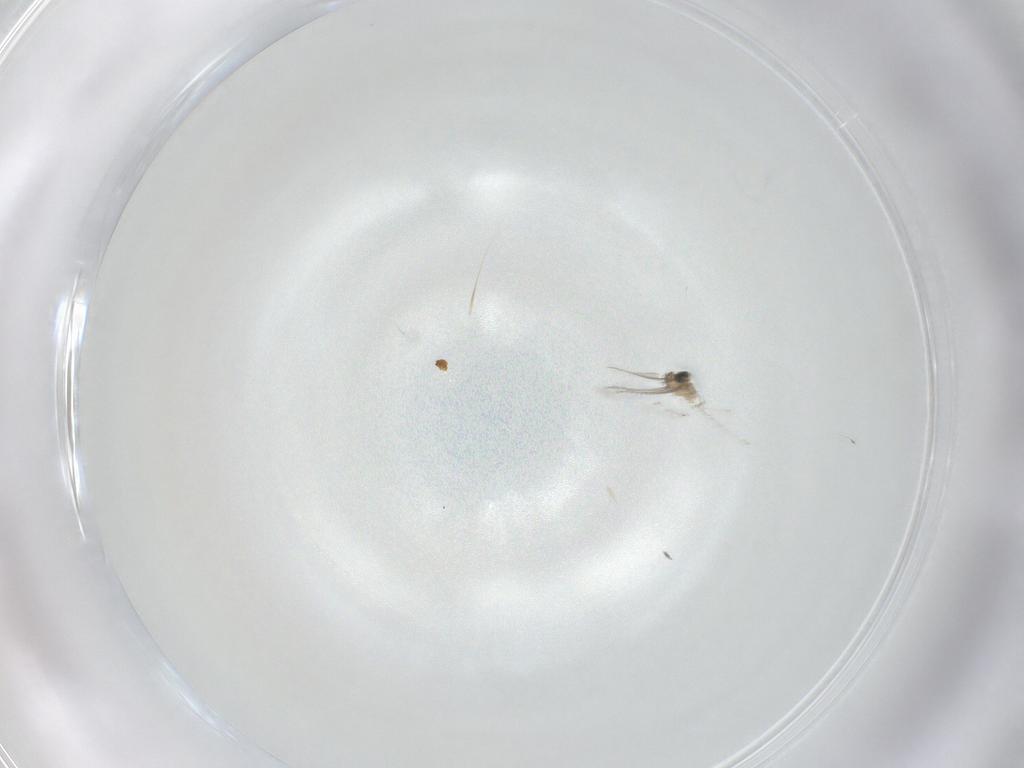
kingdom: Animalia
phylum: Arthropoda
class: Insecta
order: Diptera
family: Cecidomyiidae
